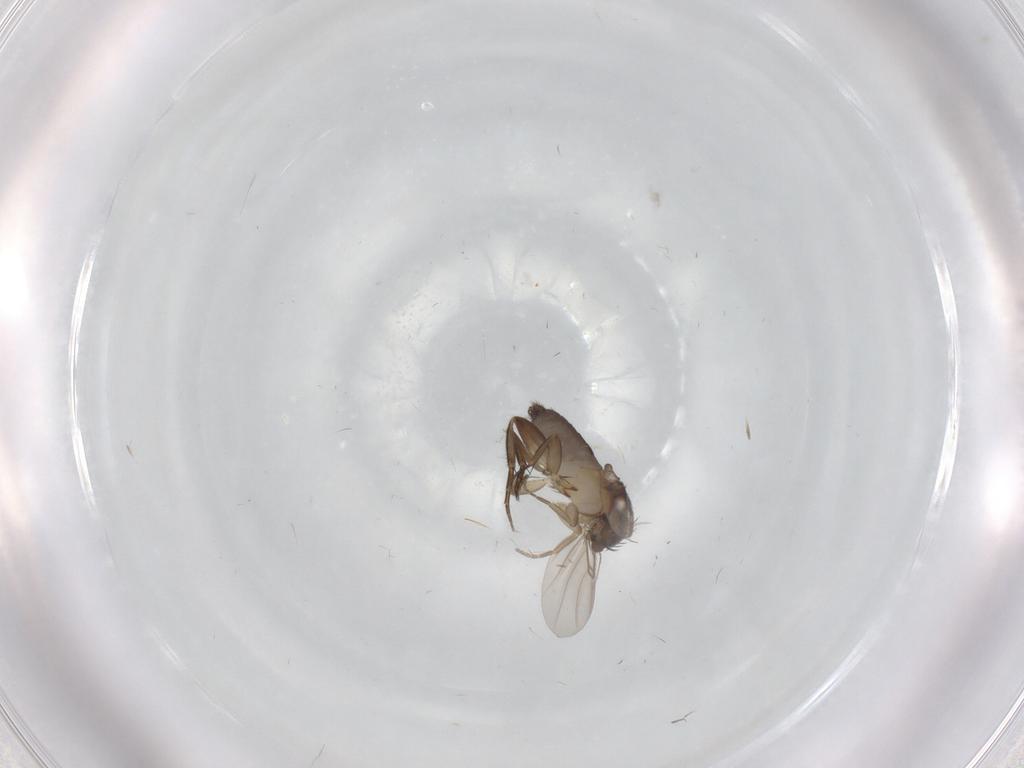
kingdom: Animalia
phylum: Arthropoda
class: Insecta
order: Diptera
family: Phoridae
